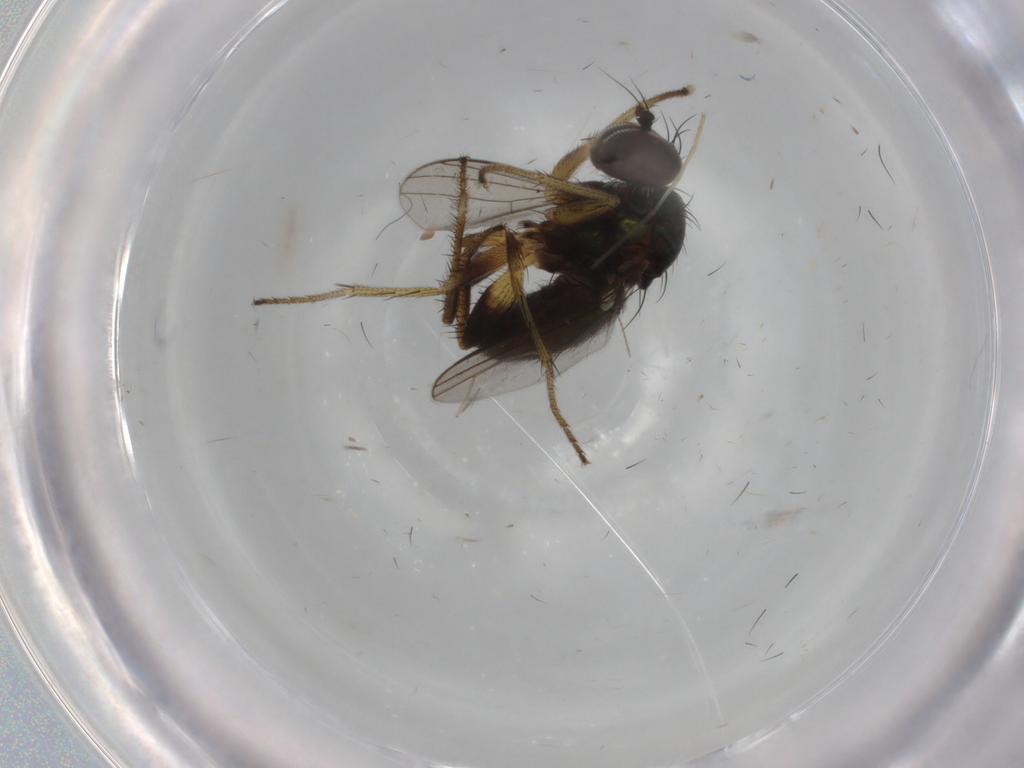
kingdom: Animalia
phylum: Arthropoda
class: Insecta
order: Diptera
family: Dolichopodidae
